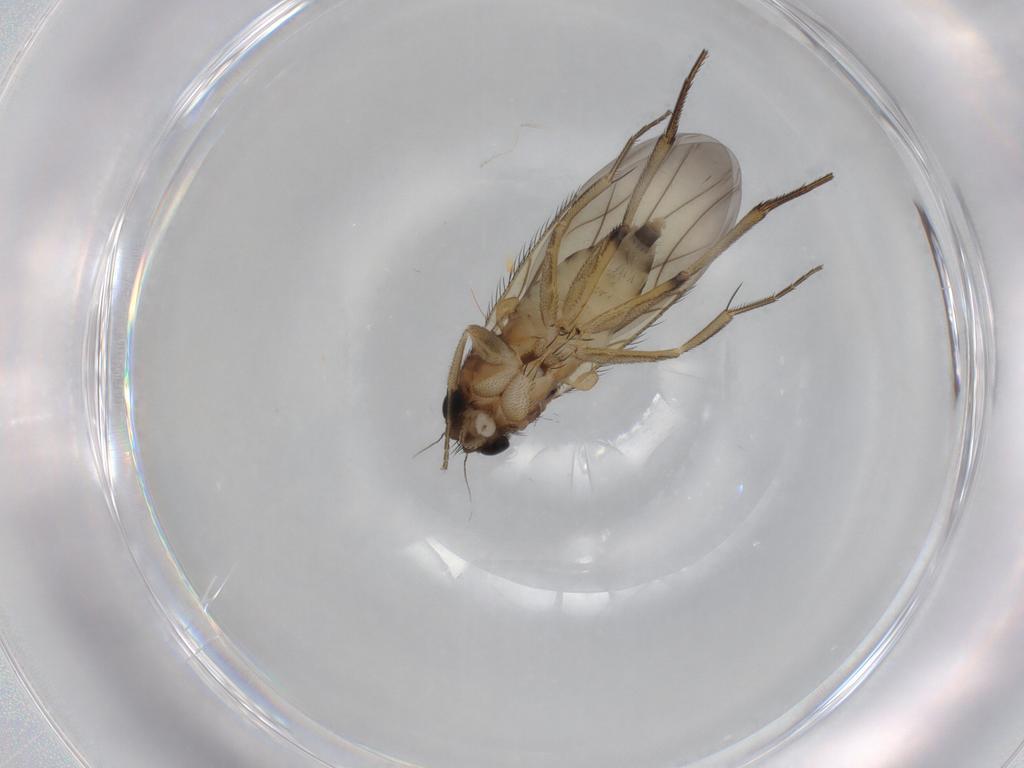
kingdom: Animalia
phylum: Arthropoda
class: Insecta
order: Diptera
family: Phoridae
